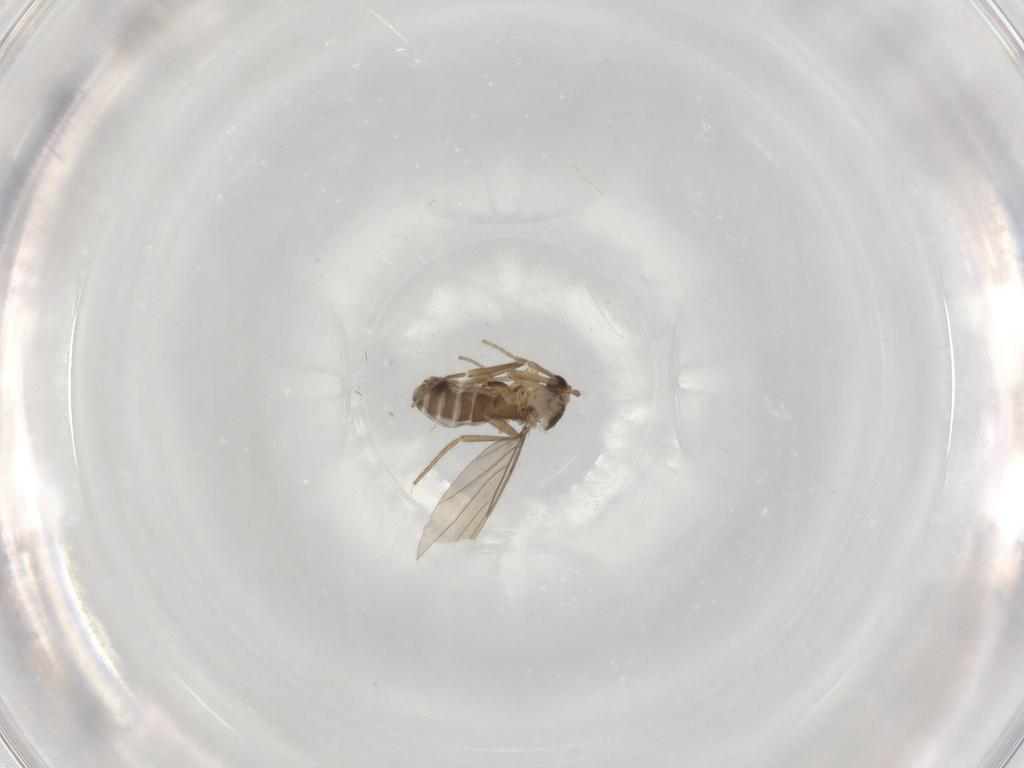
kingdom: Animalia
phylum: Arthropoda
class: Insecta
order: Diptera
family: Phoridae
